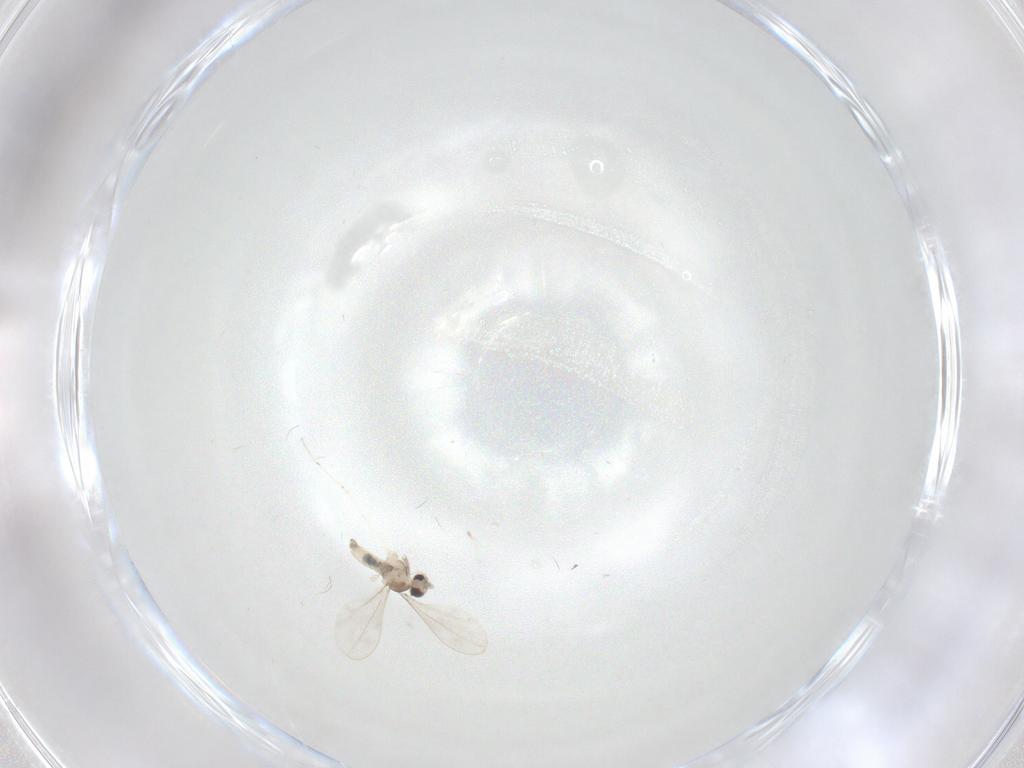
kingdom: Animalia
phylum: Arthropoda
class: Insecta
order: Diptera
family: Cecidomyiidae
